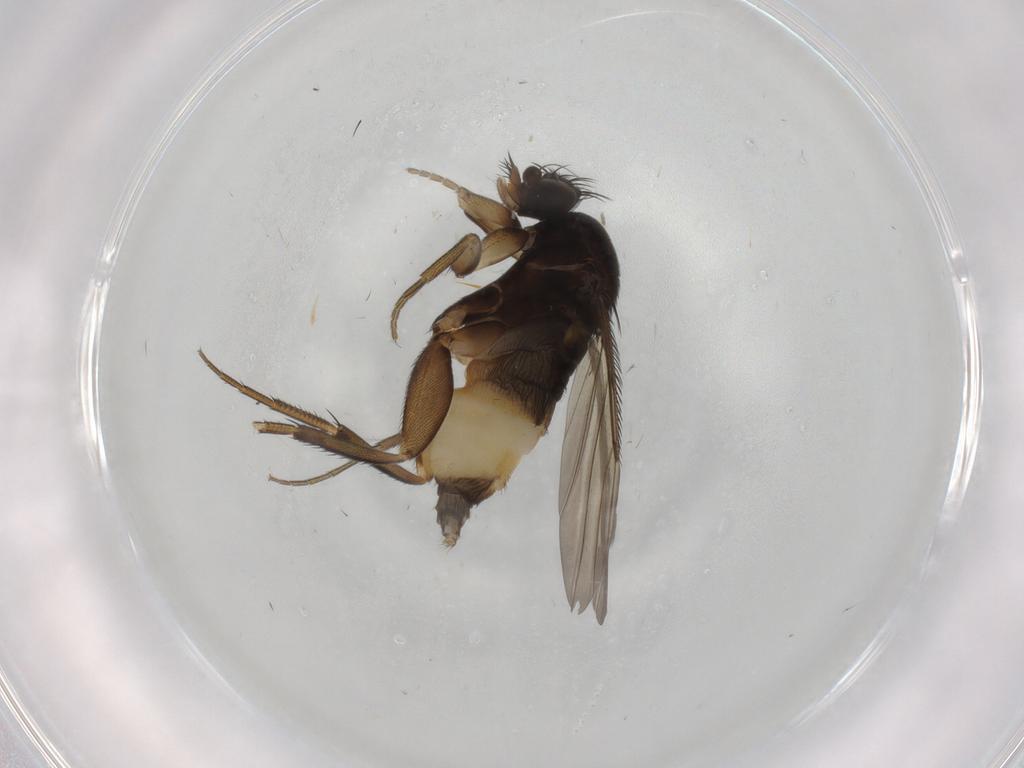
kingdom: Animalia
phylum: Arthropoda
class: Insecta
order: Diptera
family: Phoridae
